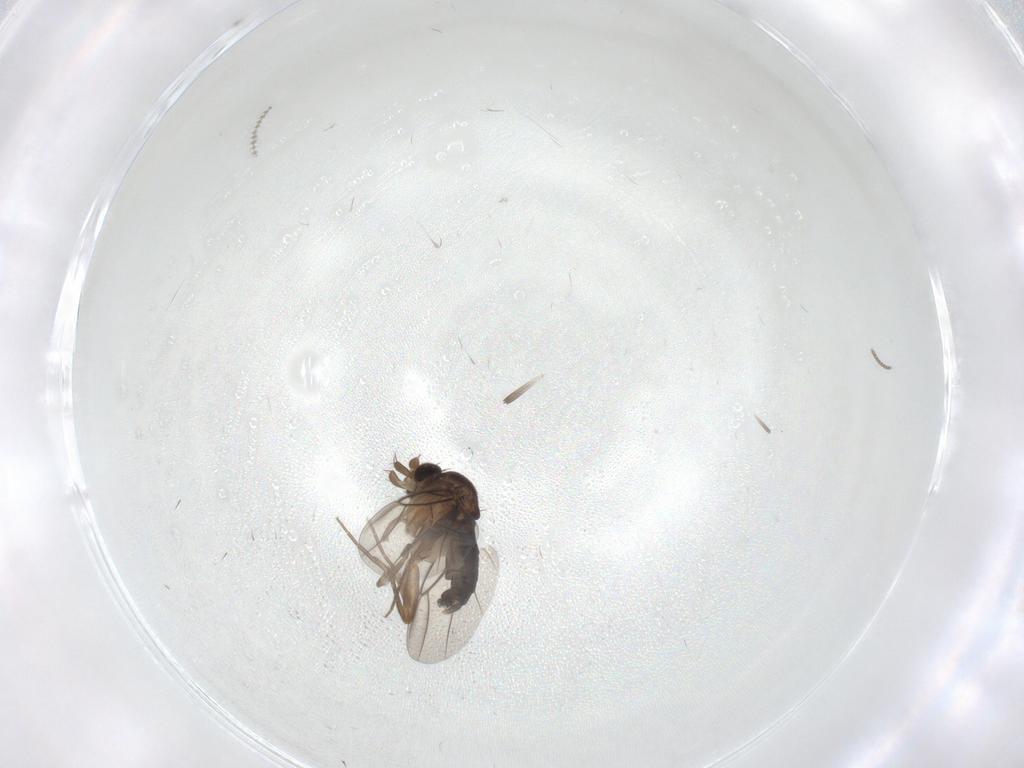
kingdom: Animalia
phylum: Arthropoda
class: Insecta
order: Diptera
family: Phoridae
